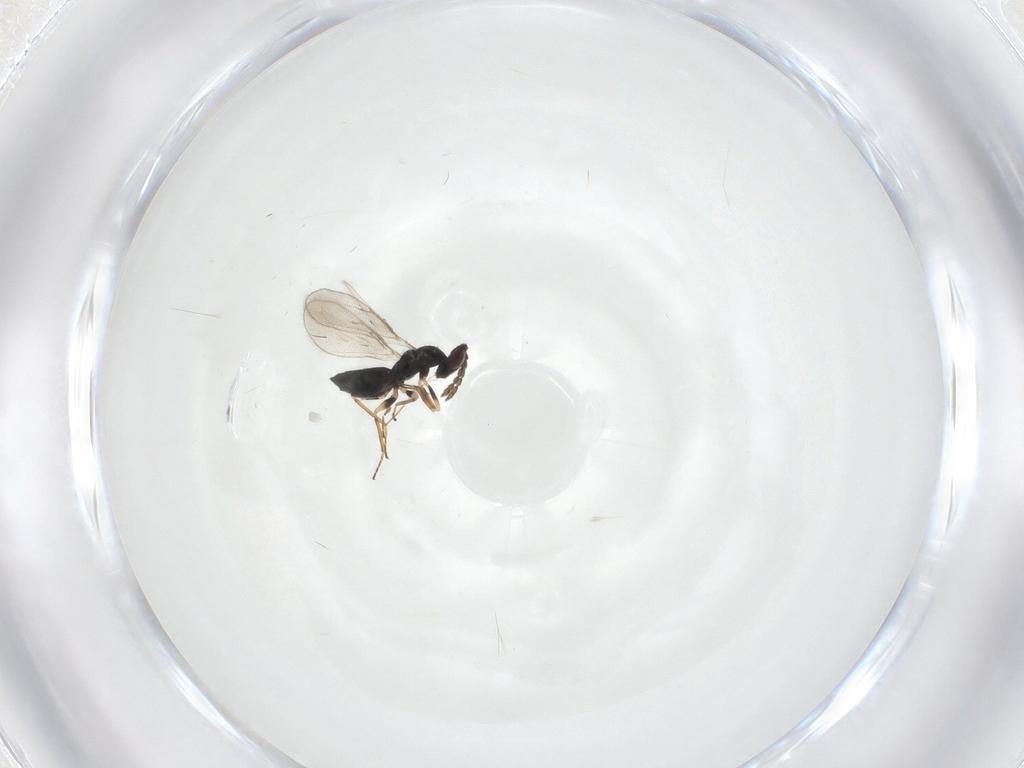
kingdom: Animalia
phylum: Arthropoda
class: Insecta
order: Hymenoptera
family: Formicidae
